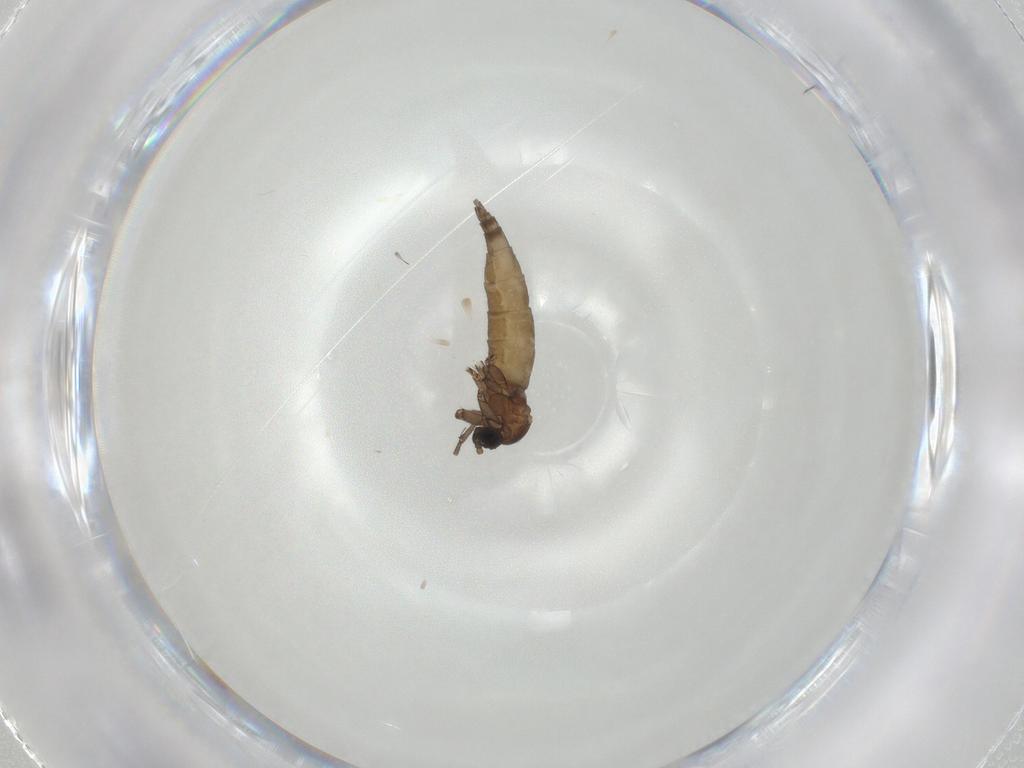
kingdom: Animalia
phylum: Arthropoda
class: Insecta
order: Diptera
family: Sciaridae
